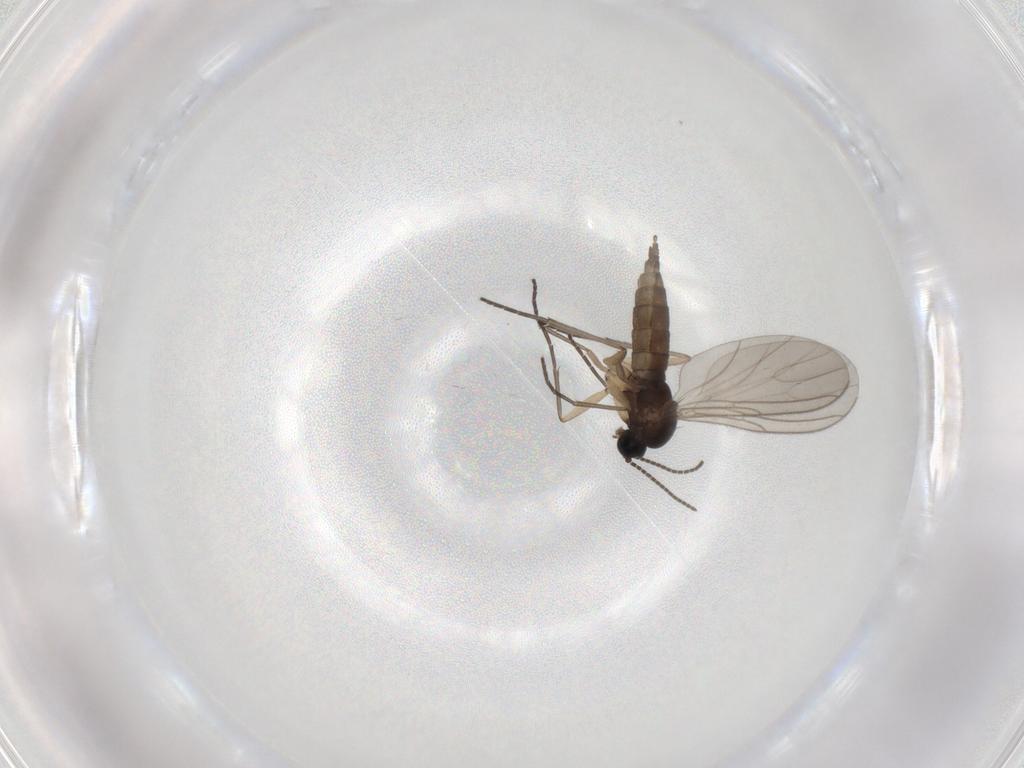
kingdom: Animalia
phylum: Arthropoda
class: Insecta
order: Diptera
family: Sciaridae
